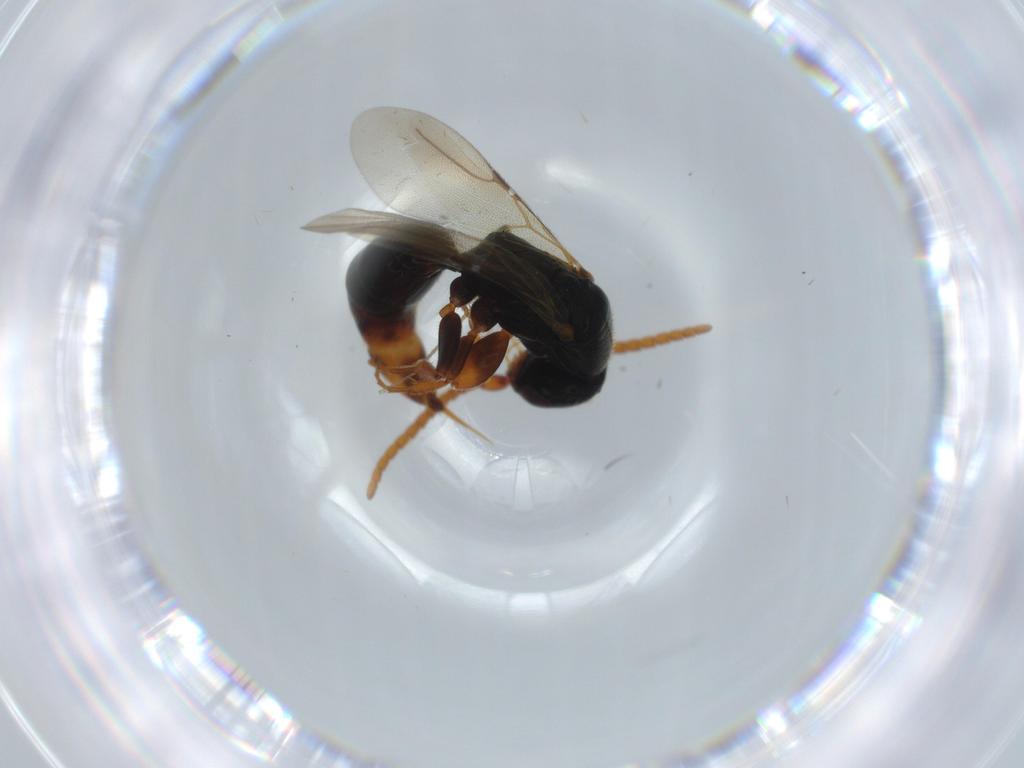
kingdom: Animalia
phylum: Arthropoda
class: Insecta
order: Hymenoptera
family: Bethylidae
